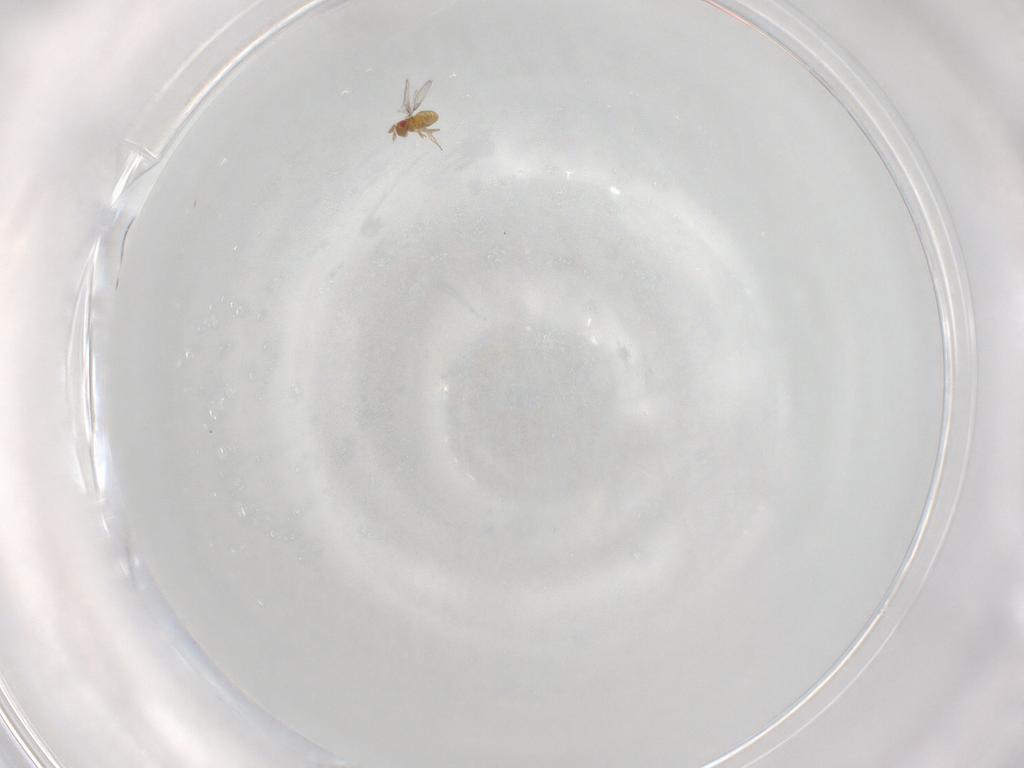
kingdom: Animalia
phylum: Arthropoda
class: Insecta
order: Hymenoptera
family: Trichogrammatidae
